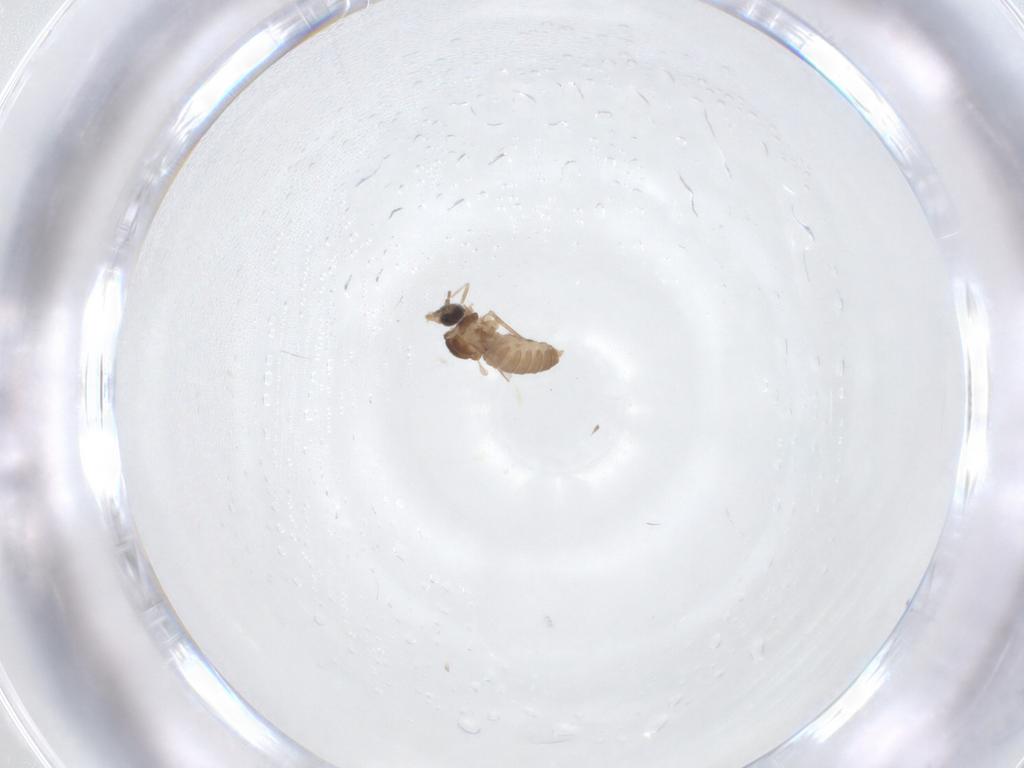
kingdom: Animalia
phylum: Arthropoda
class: Insecta
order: Diptera
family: Cecidomyiidae
